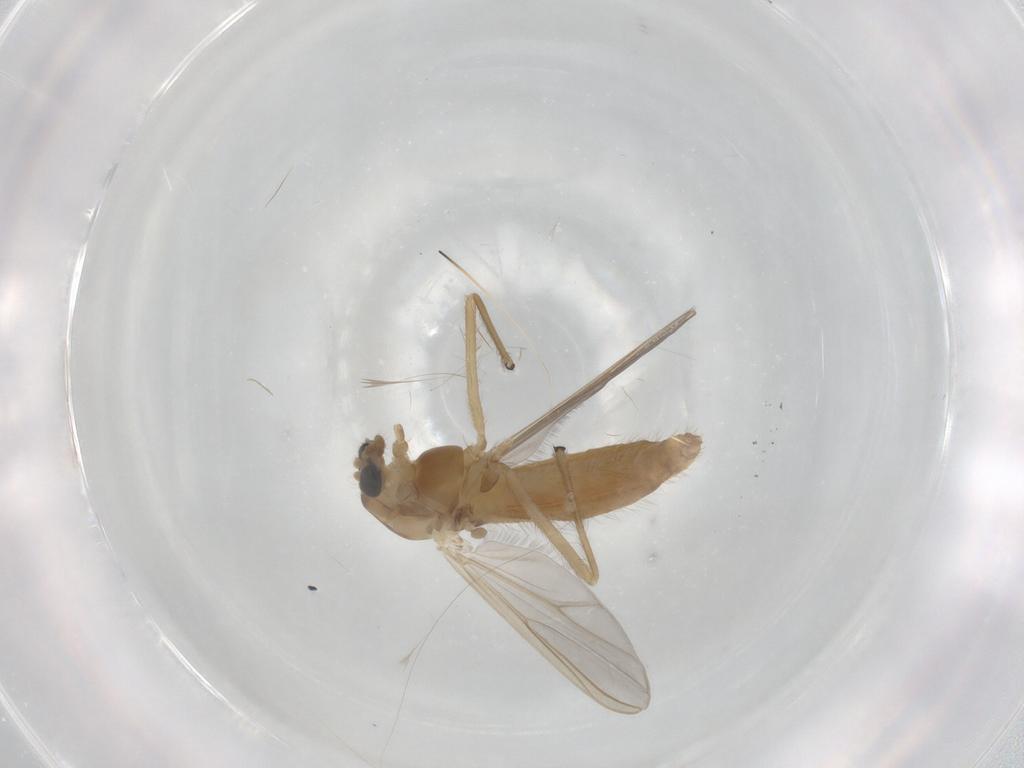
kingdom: Animalia
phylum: Arthropoda
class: Insecta
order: Diptera
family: Chironomidae
